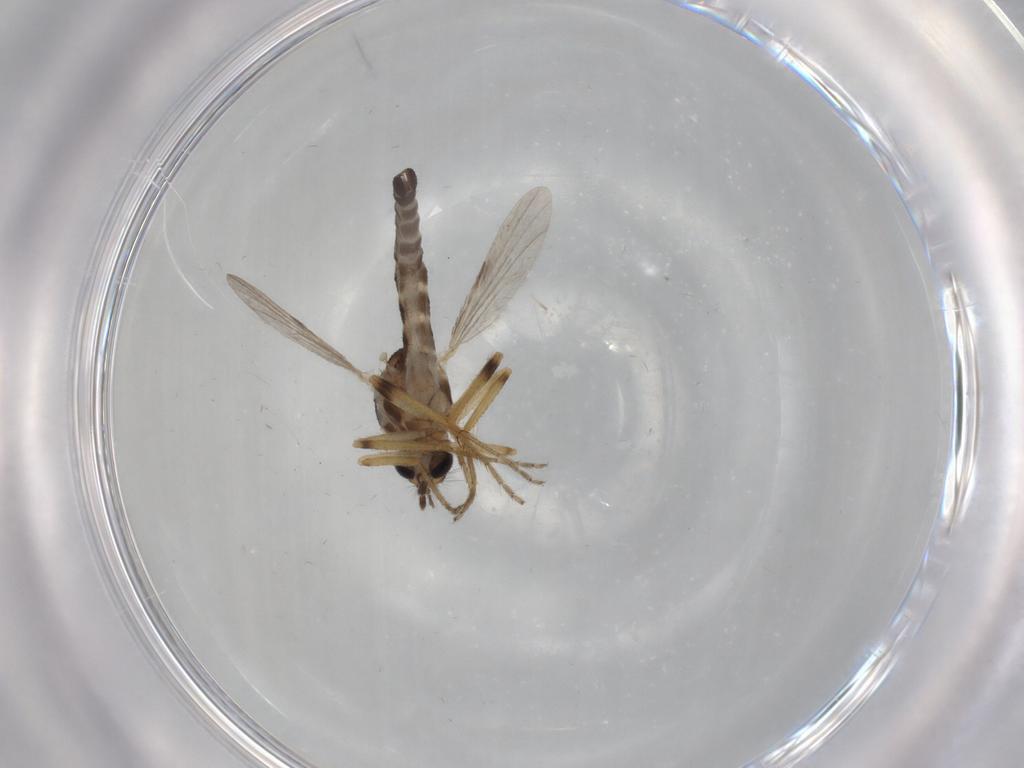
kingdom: Animalia
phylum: Arthropoda
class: Insecta
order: Diptera
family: Ceratopogonidae
